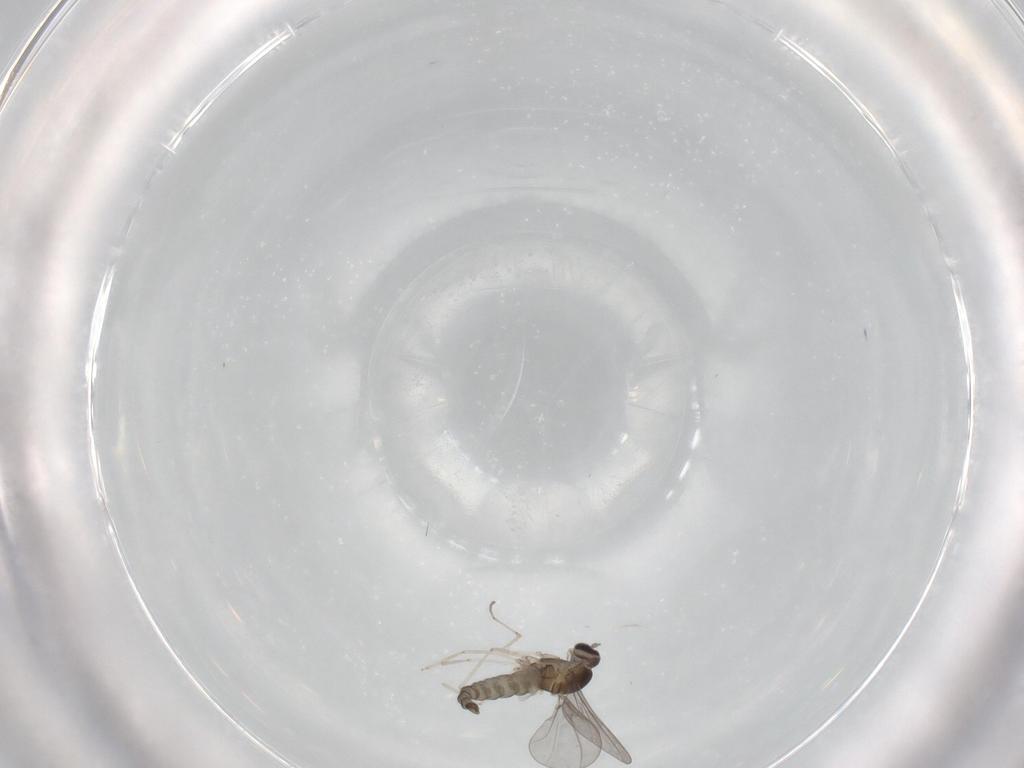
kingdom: Animalia
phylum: Arthropoda
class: Insecta
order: Diptera
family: Cecidomyiidae
